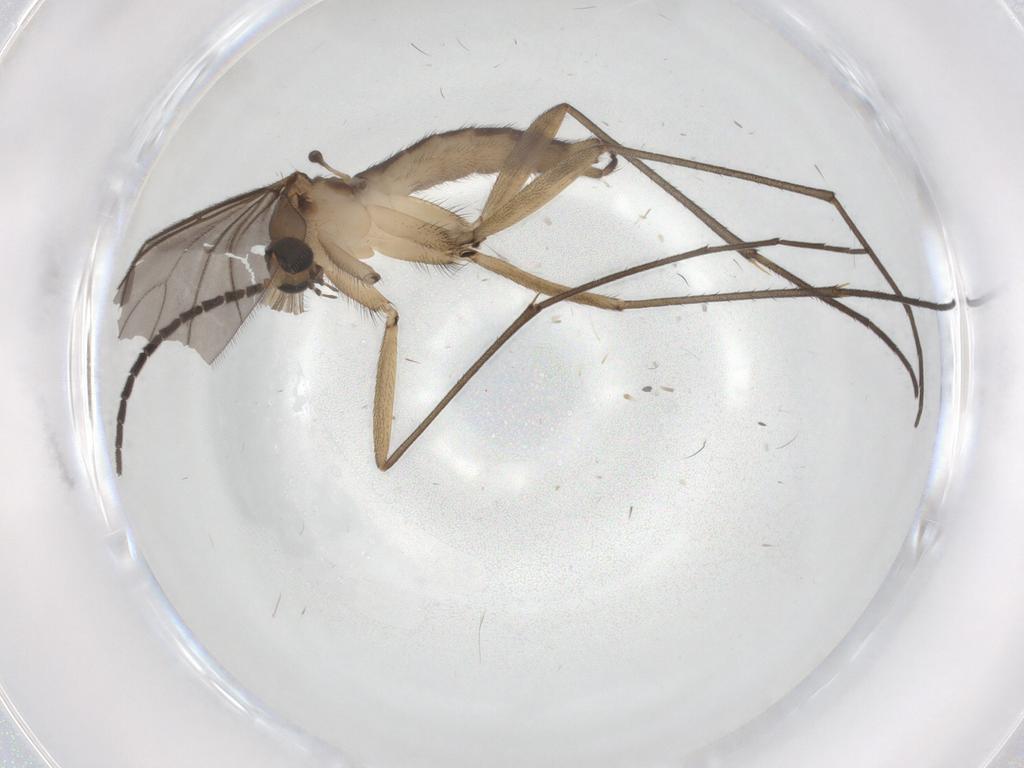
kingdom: Animalia
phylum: Arthropoda
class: Insecta
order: Diptera
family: Sciaridae
